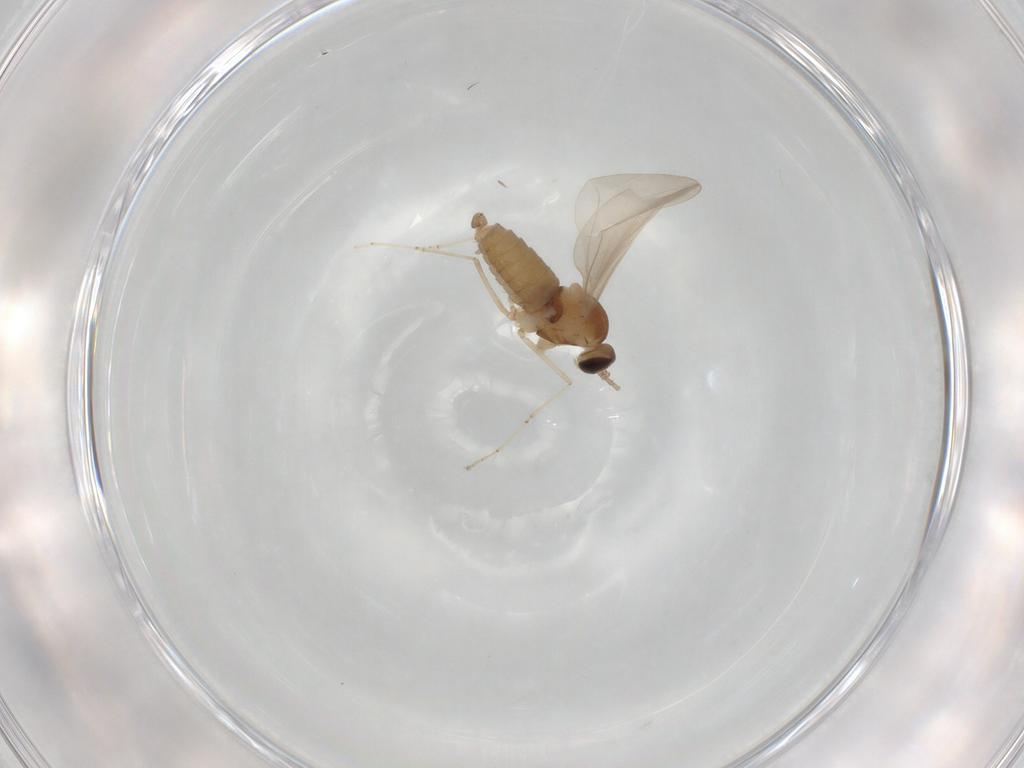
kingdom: Animalia
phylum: Arthropoda
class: Insecta
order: Diptera
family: Cecidomyiidae
